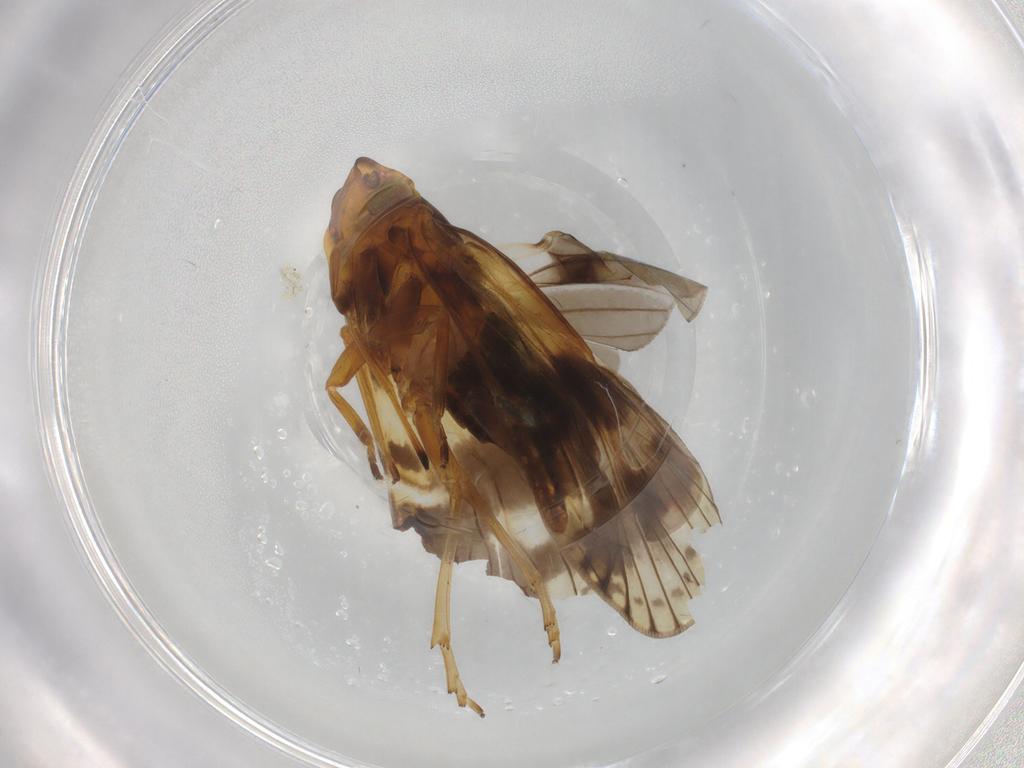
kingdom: Animalia
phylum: Arthropoda
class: Insecta
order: Hemiptera
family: Cixiidae
